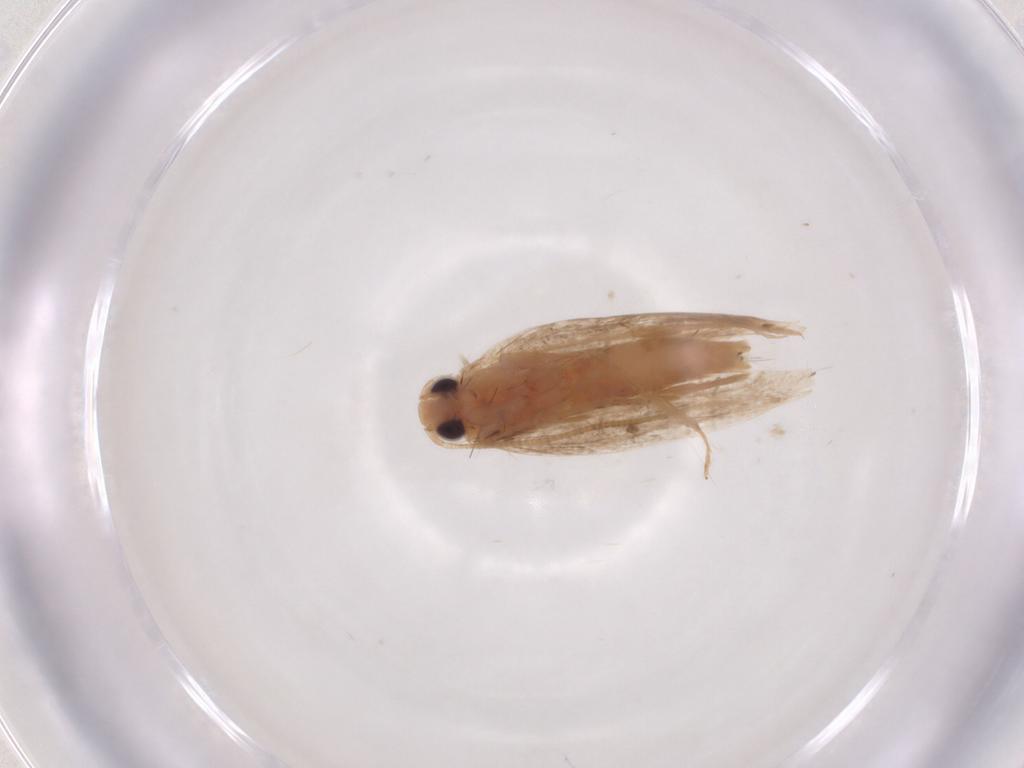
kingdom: Animalia
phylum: Arthropoda
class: Insecta
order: Lepidoptera
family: Tineidae
